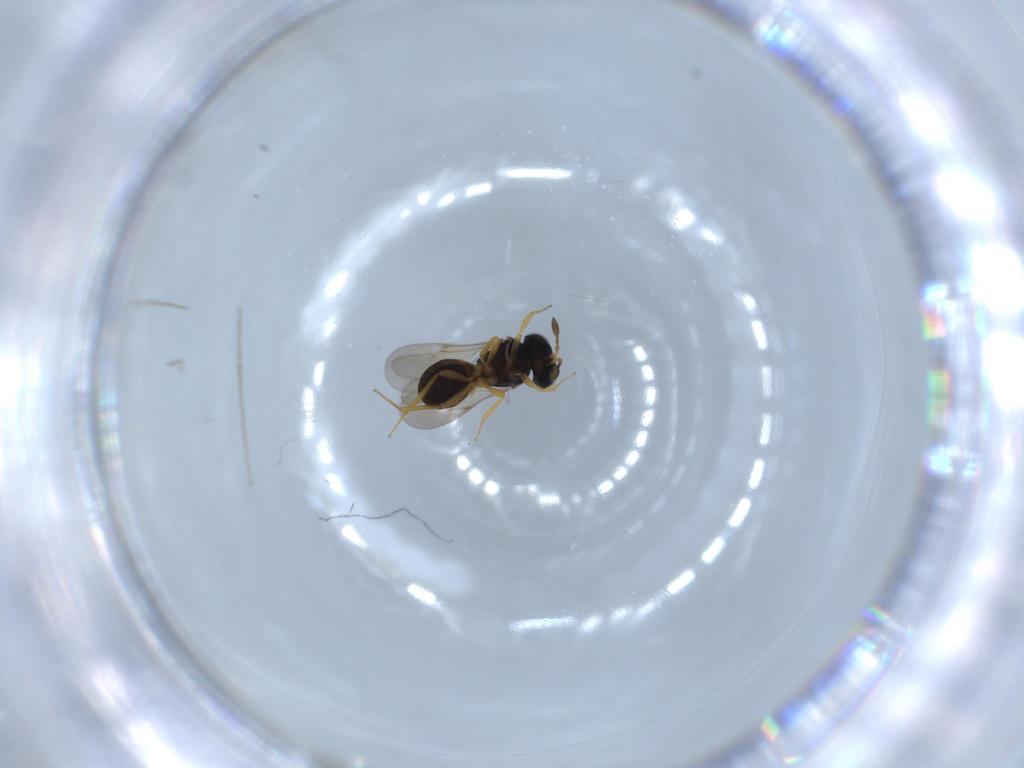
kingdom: Animalia
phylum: Arthropoda
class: Insecta
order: Hymenoptera
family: Scelionidae
